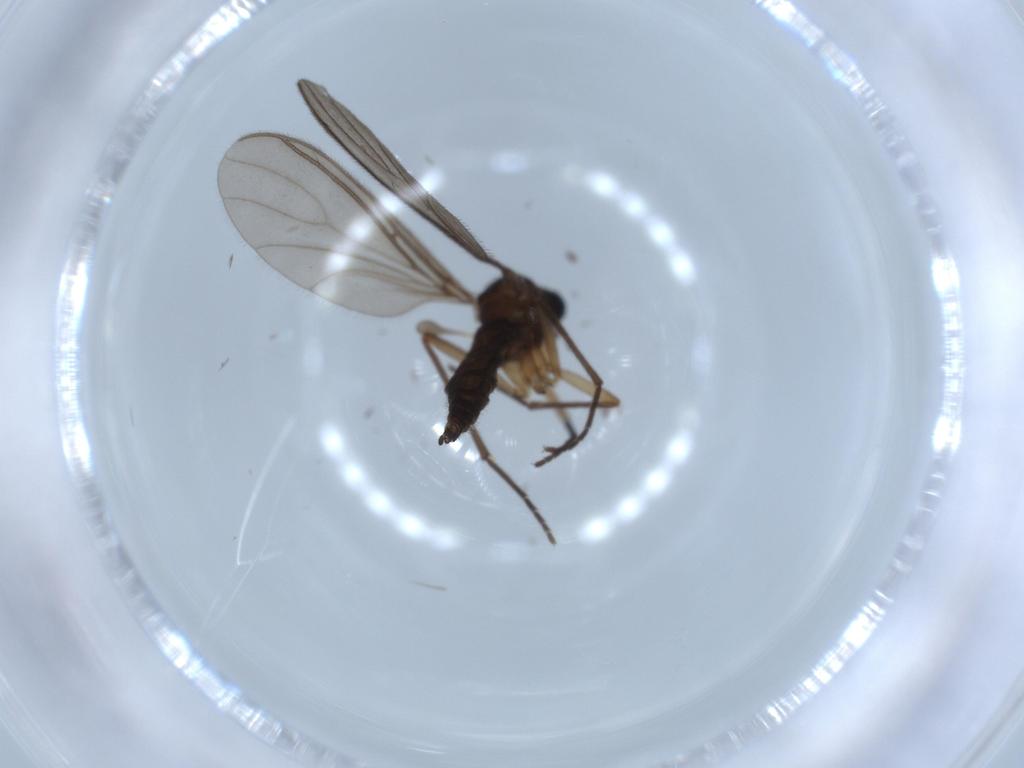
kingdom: Animalia
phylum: Arthropoda
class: Insecta
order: Diptera
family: Sciaridae
